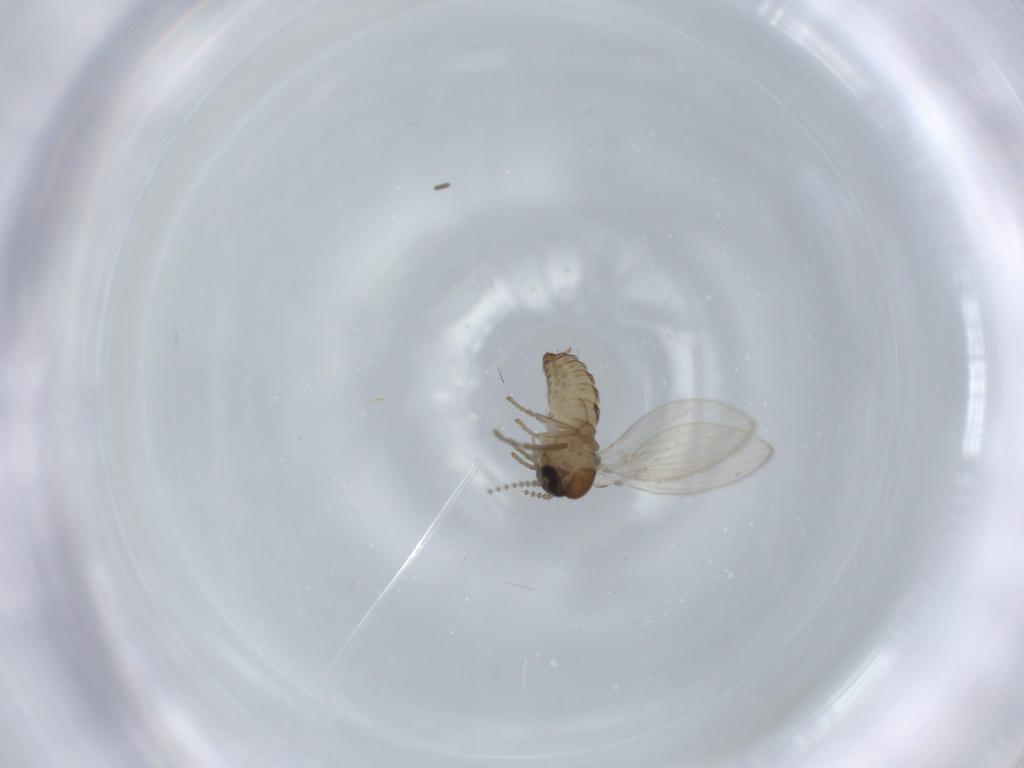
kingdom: Animalia
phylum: Arthropoda
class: Insecta
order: Diptera
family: Psychodidae
